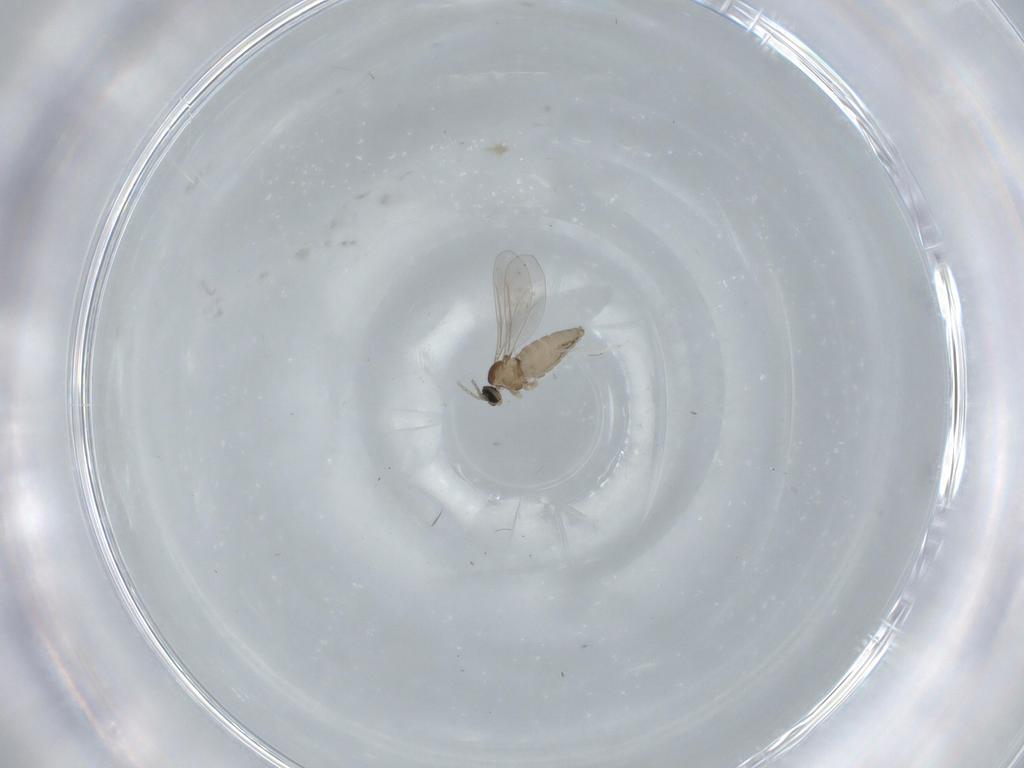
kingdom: Animalia
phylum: Arthropoda
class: Insecta
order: Diptera
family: Cecidomyiidae
